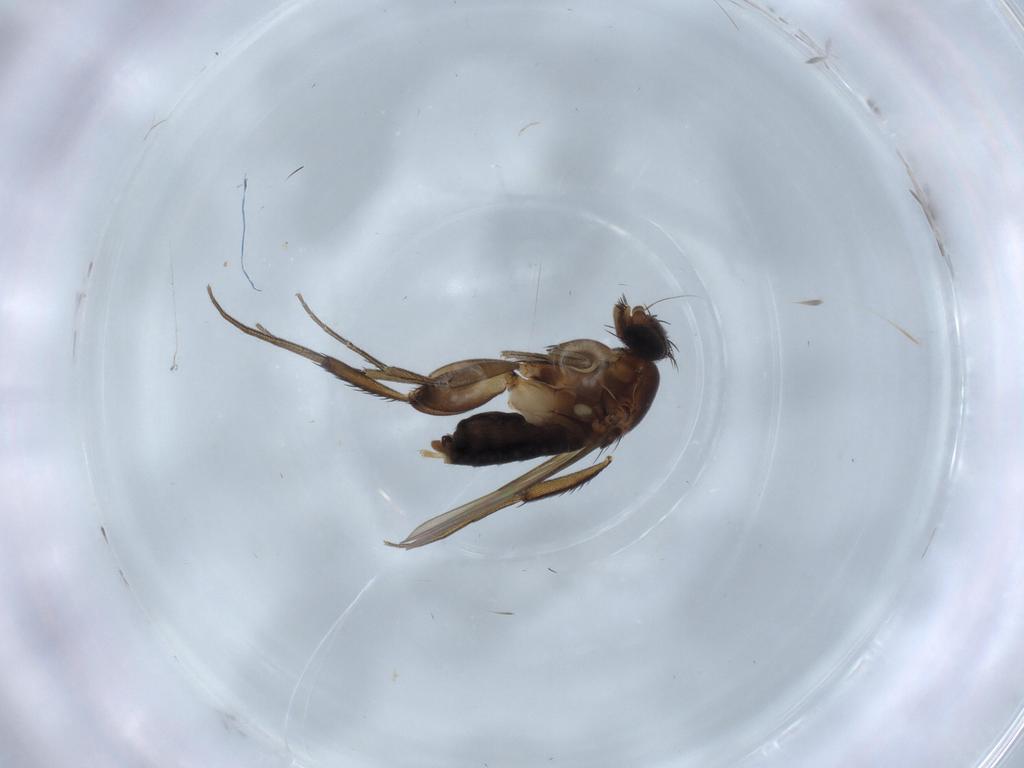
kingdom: Animalia
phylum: Arthropoda
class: Insecta
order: Diptera
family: Phoridae
